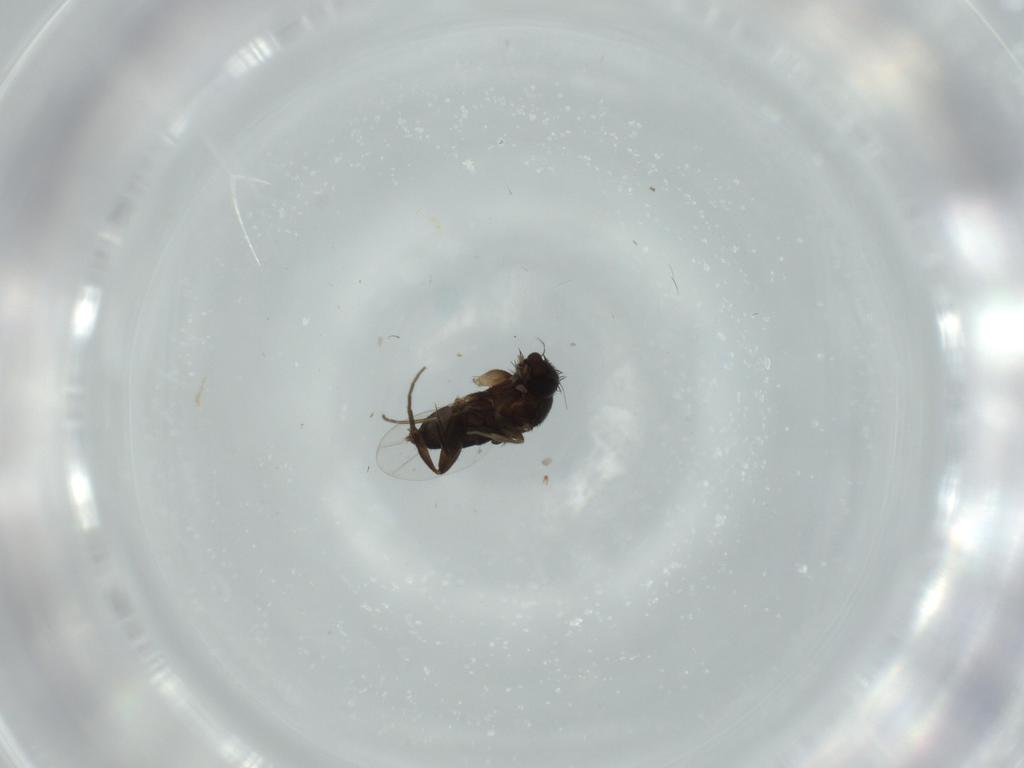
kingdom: Animalia
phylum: Arthropoda
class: Insecta
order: Diptera
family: Phoridae
